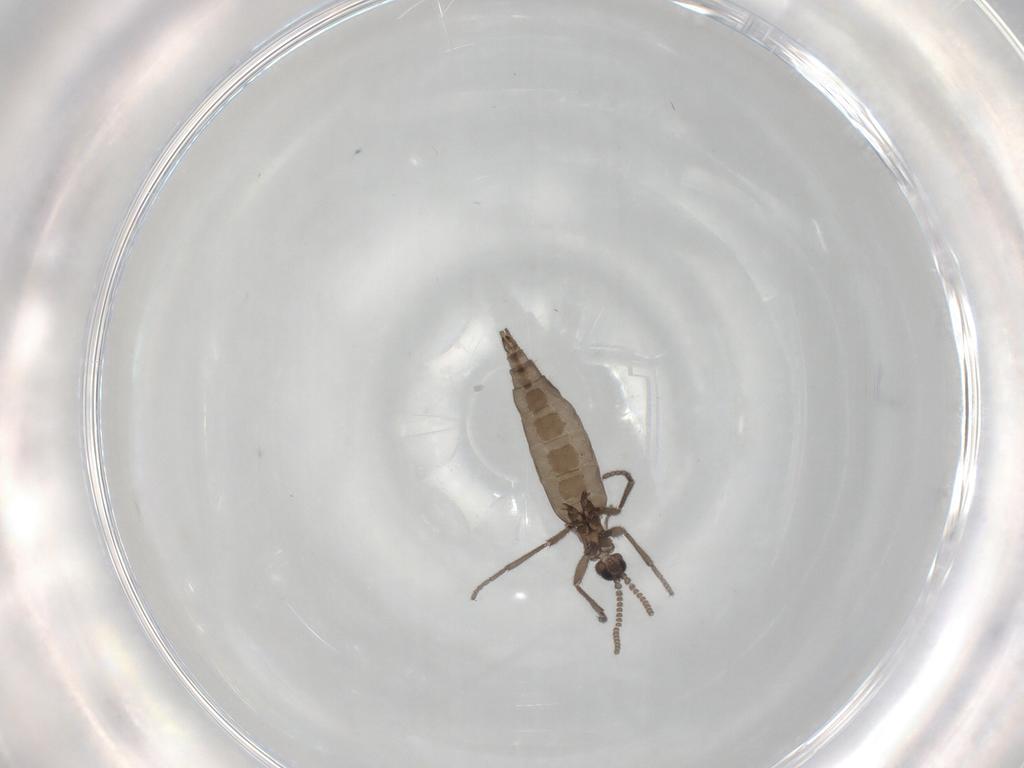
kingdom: Animalia
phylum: Arthropoda
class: Insecta
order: Diptera
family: Sciaridae
